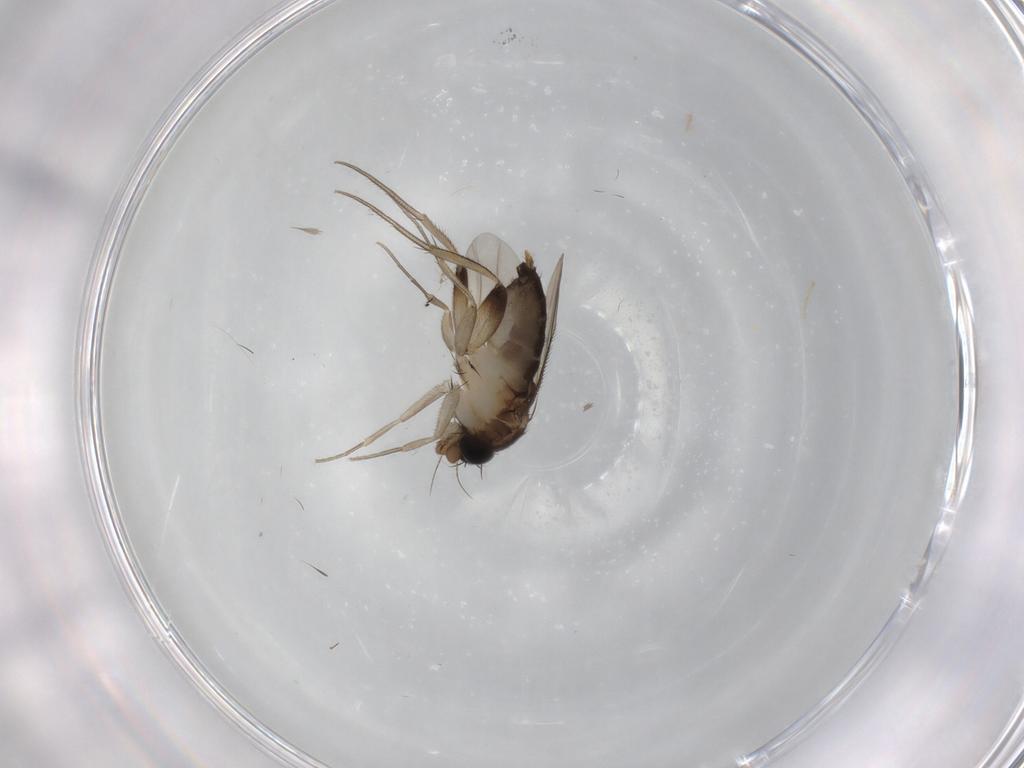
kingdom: Animalia
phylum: Arthropoda
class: Insecta
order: Diptera
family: Phoridae
